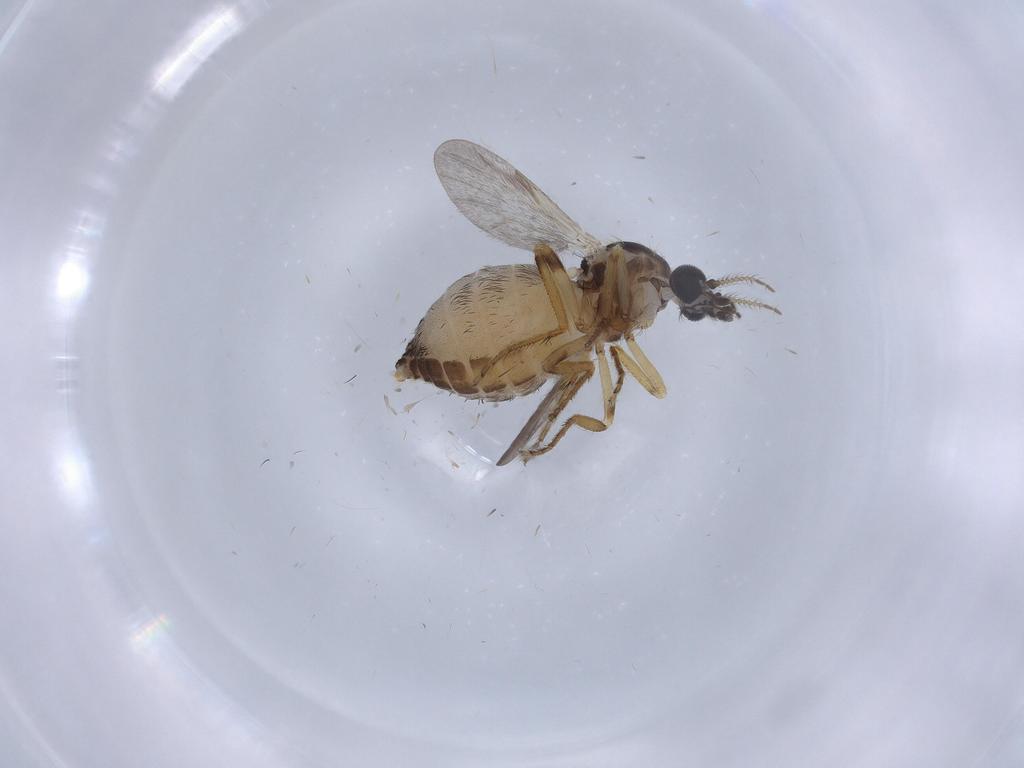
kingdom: Animalia
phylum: Arthropoda
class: Insecta
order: Diptera
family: Ceratopogonidae
